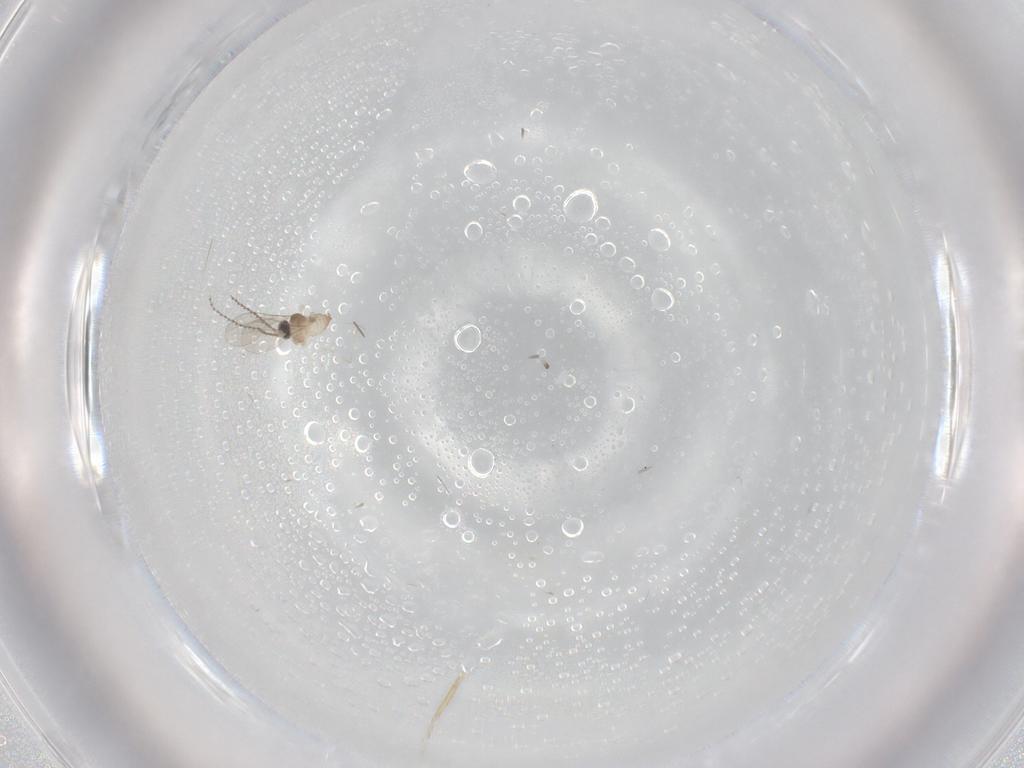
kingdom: Animalia
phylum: Arthropoda
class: Insecta
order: Diptera
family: Cecidomyiidae
